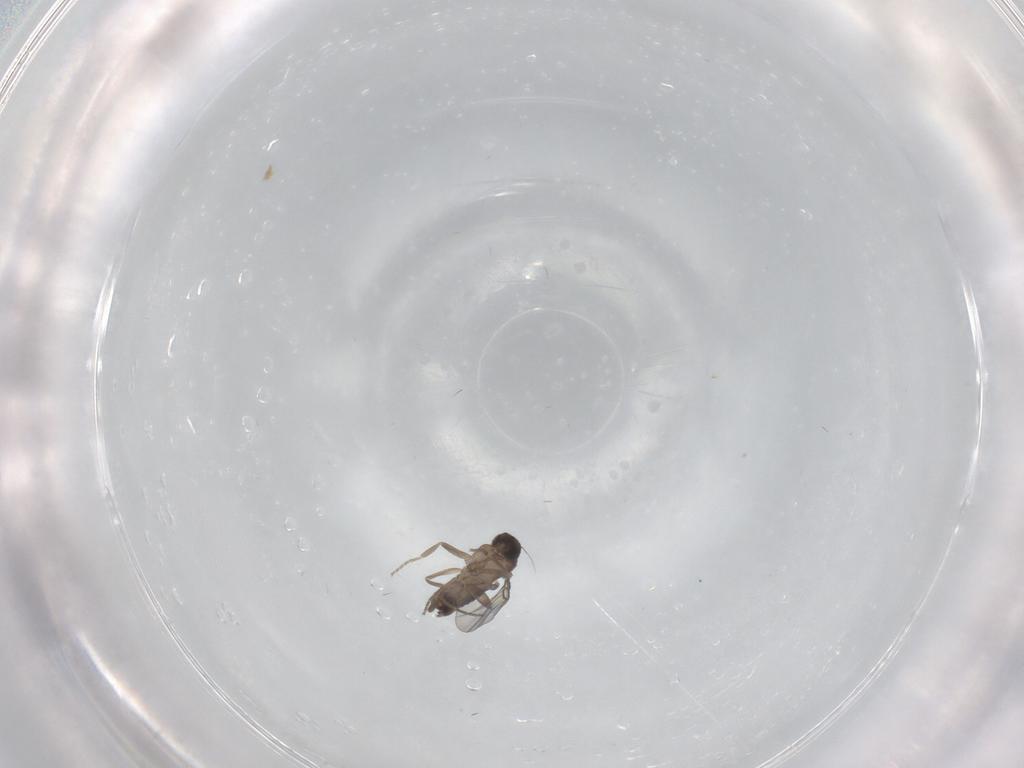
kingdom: Animalia
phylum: Arthropoda
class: Insecta
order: Diptera
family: Phoridae
